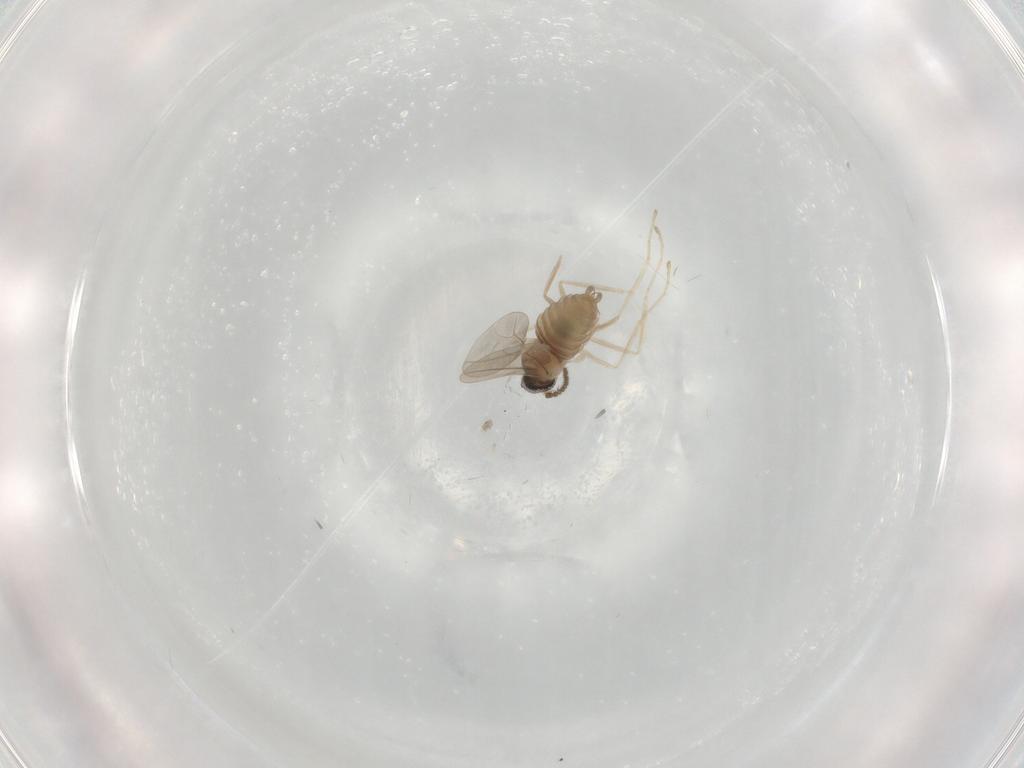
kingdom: Animalia
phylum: Arthropoda
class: Insecta
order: Diptera
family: Cecidomyiidae
